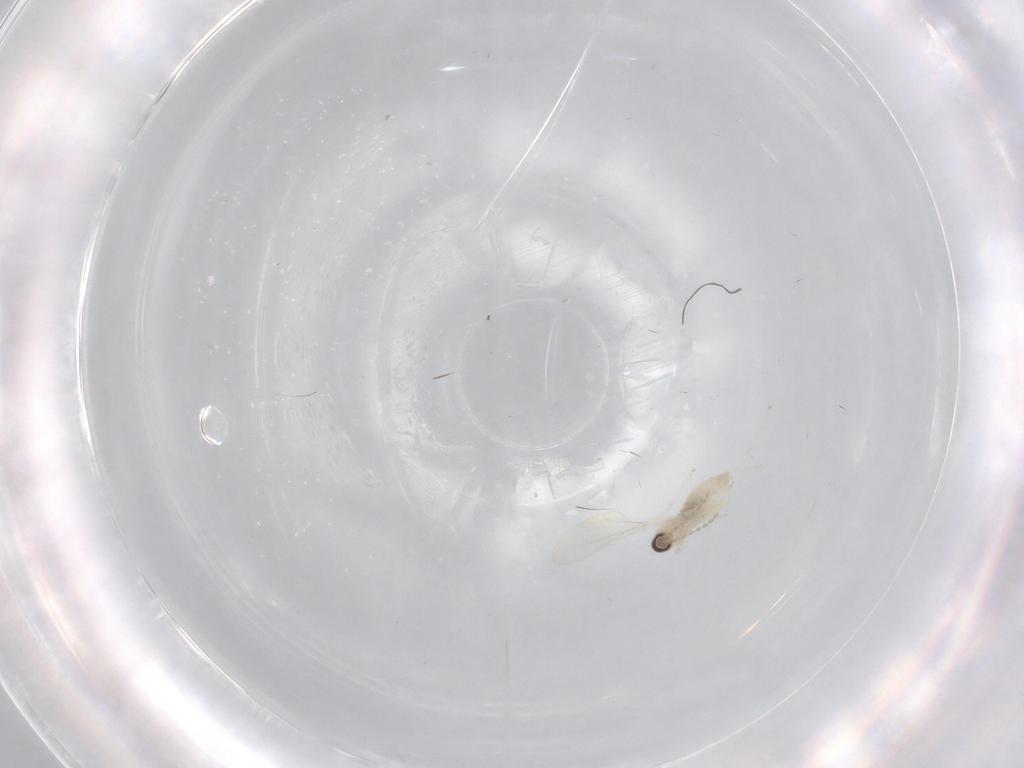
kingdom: Animalia
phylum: Arthropoda
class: Insecta
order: Diptera
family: Cecidomyiidae
